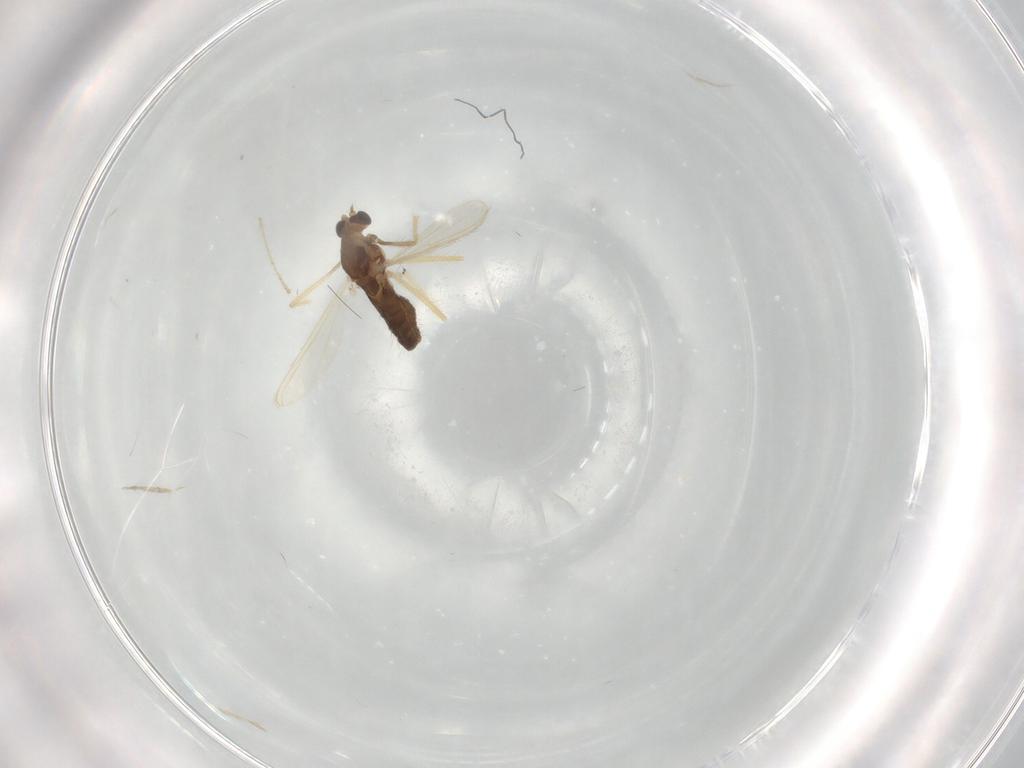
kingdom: Animalia
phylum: Arthropoda
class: Insecta
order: Diptera
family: Chironomidae
